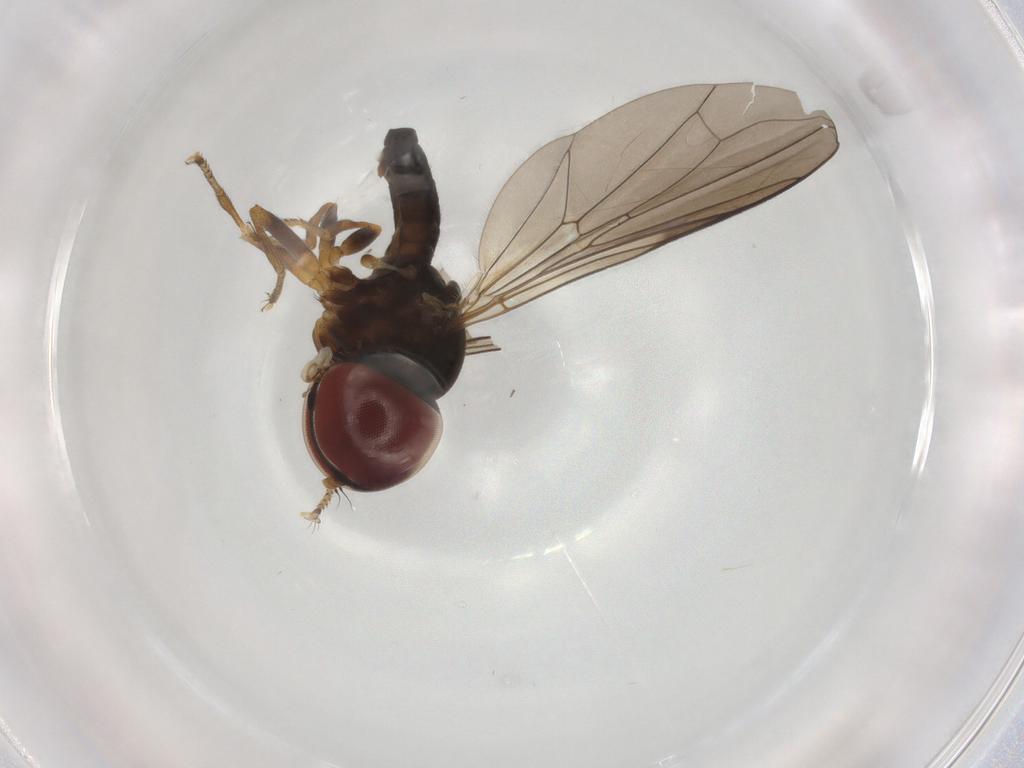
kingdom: Animalia
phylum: Arthropoda
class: Insecta
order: Diptera
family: Pipunculidae
